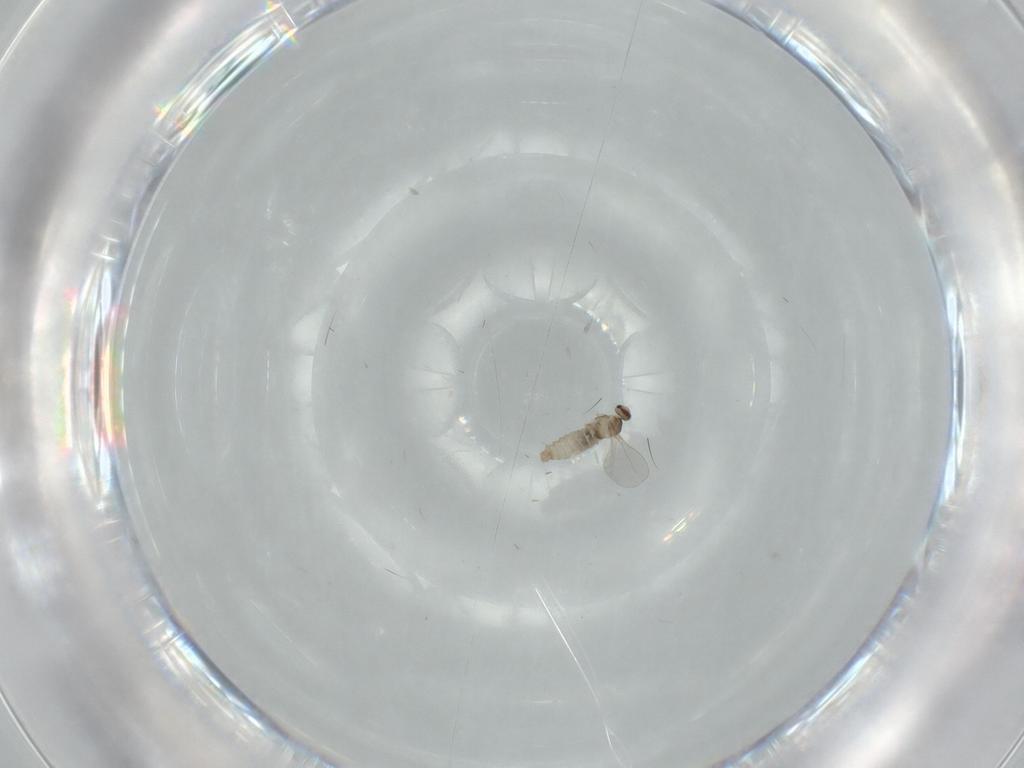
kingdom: Animalia
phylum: Arthropoda
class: Insecta
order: Diptera
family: Cecidomyiidae
